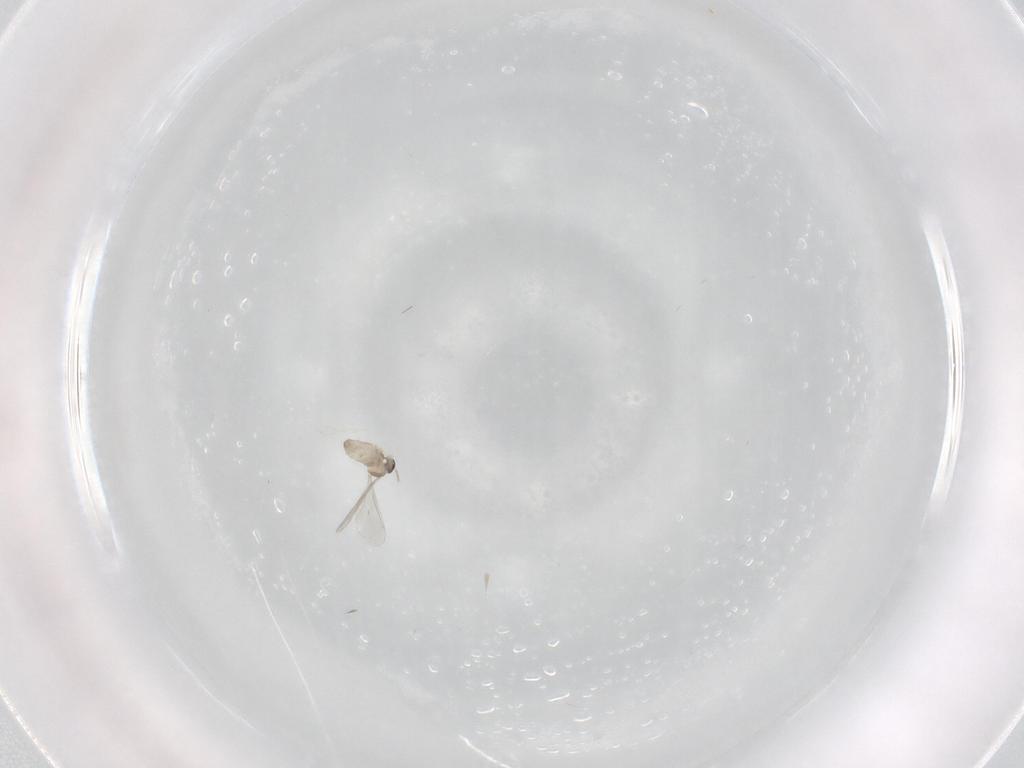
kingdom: Animalia
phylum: Arthropoda
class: Insecta
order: Diptera
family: Cecidomyiidae
